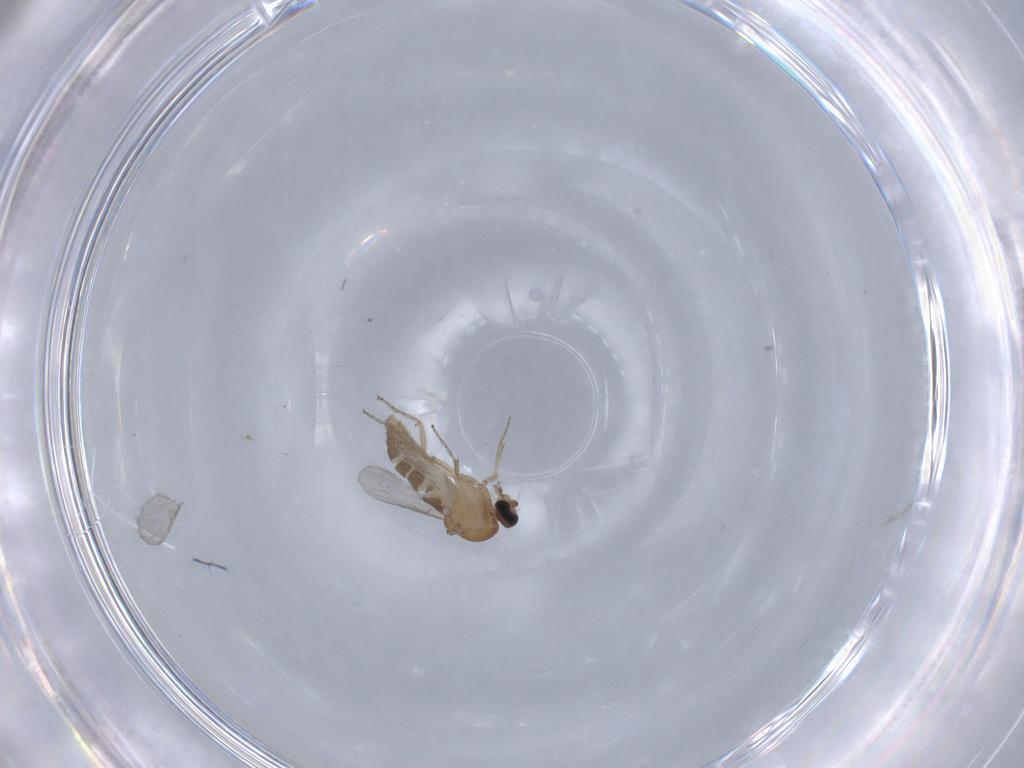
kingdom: Animalia
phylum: Arthropoda
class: Insecta
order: Diptera
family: Ceratopogonidae
